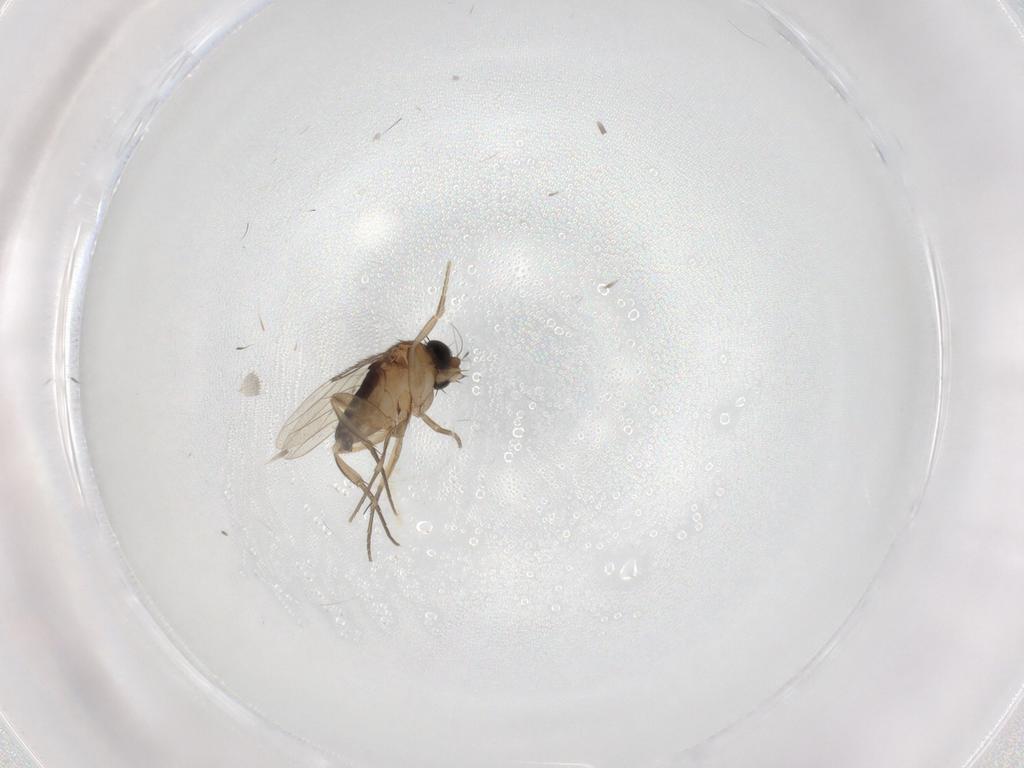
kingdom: Animalia
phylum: Arthropoda
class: Insecta
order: Diptera
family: Phoridae
